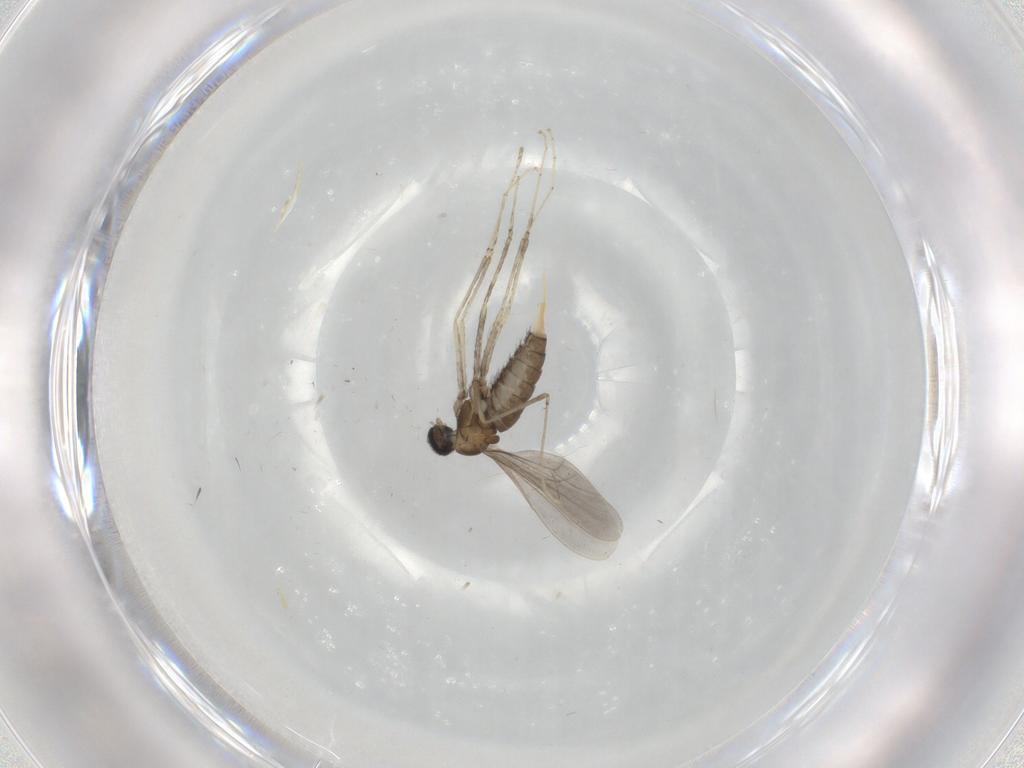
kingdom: Animalia
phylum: Arthropoda
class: Insecta
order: Diptera
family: Cecidomyiidae
